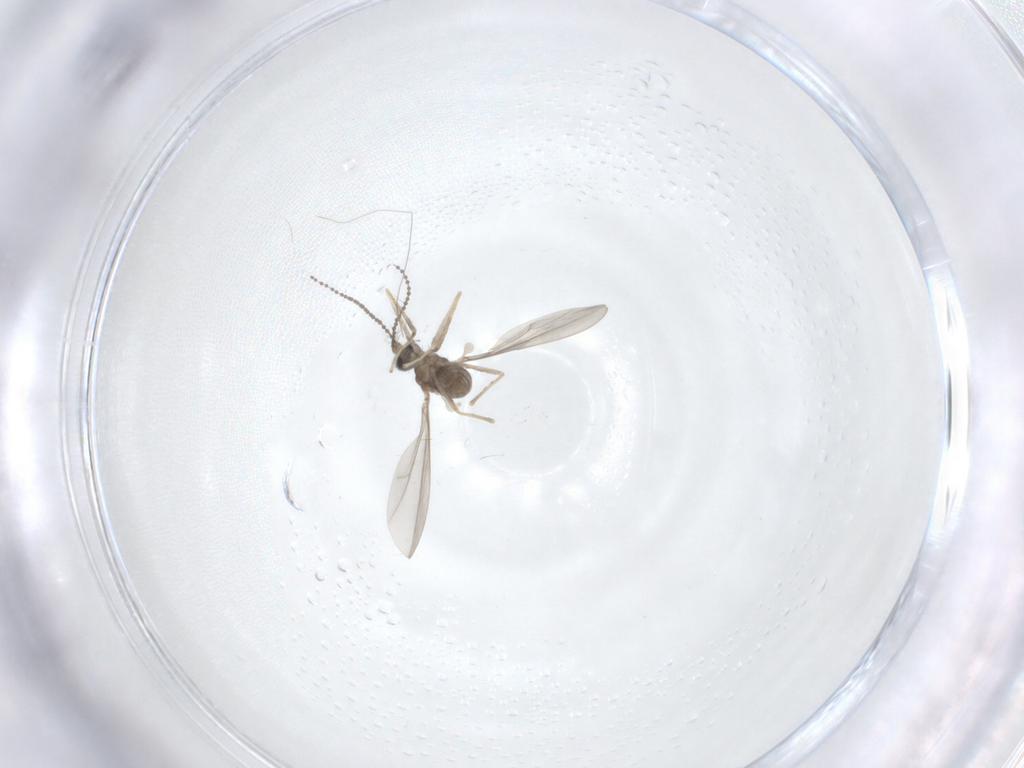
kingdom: Animalia
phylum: Arthropoda
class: Insecta
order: Diptera
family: Cecidomyiidae
